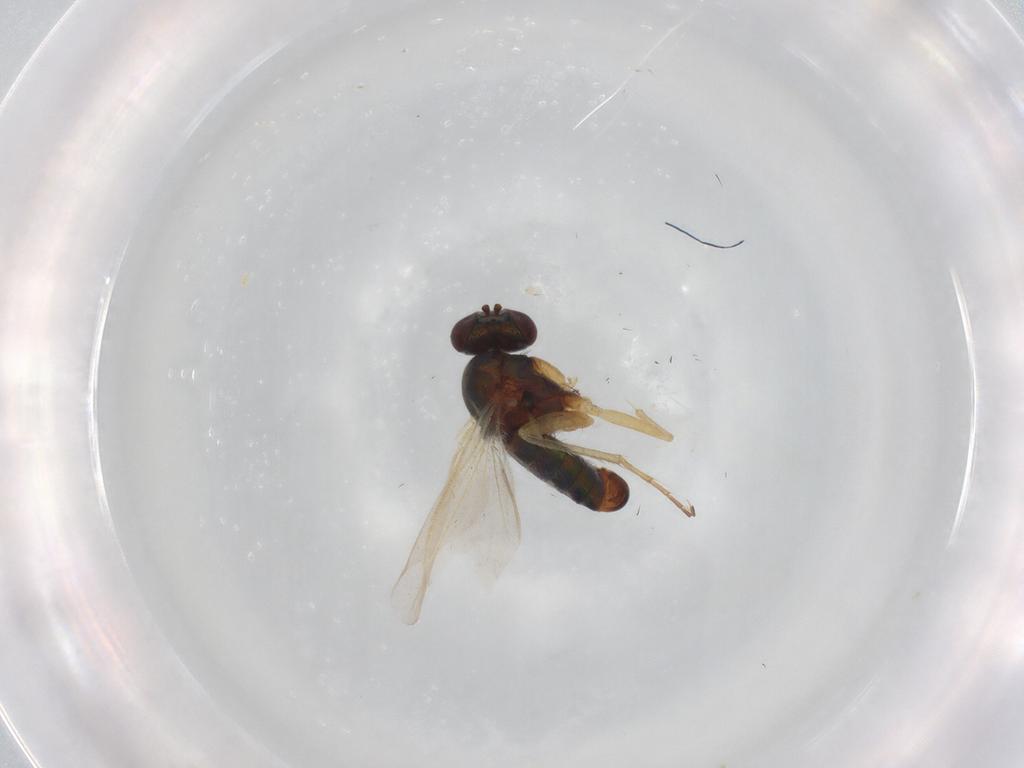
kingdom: Animalia
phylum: Arthropoda
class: Insecta
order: Diptera
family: Dolichopodidae
